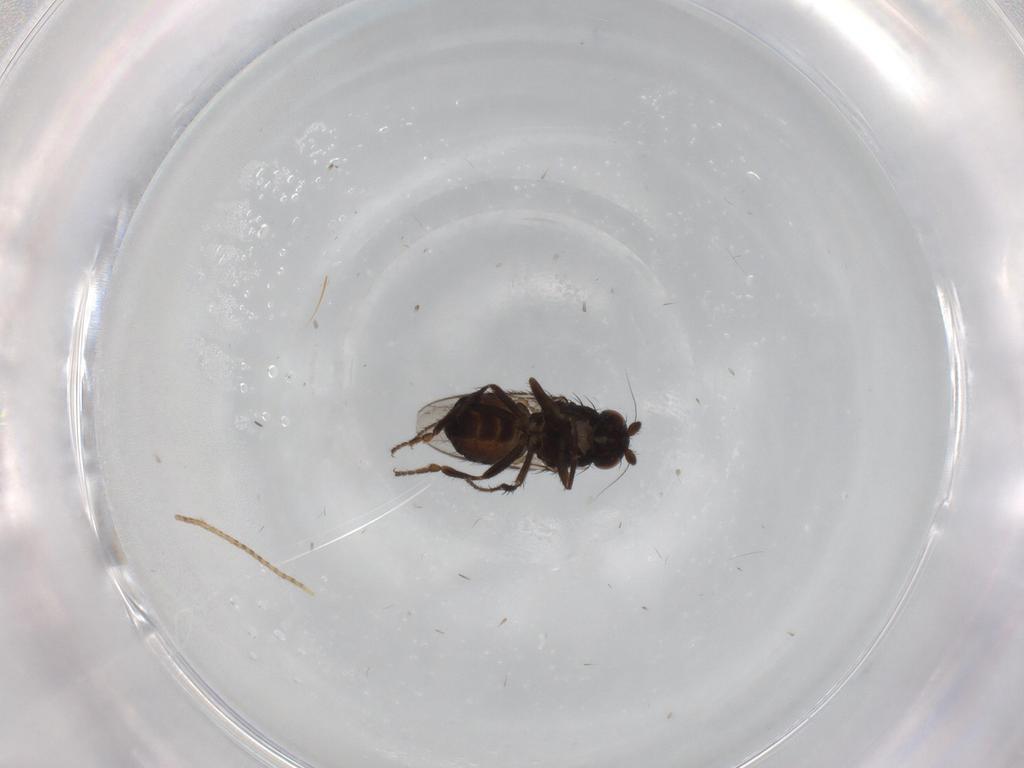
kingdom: Animalia
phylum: Arthropoda
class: Insecta
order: Diptera
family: Sphaeroceridae
